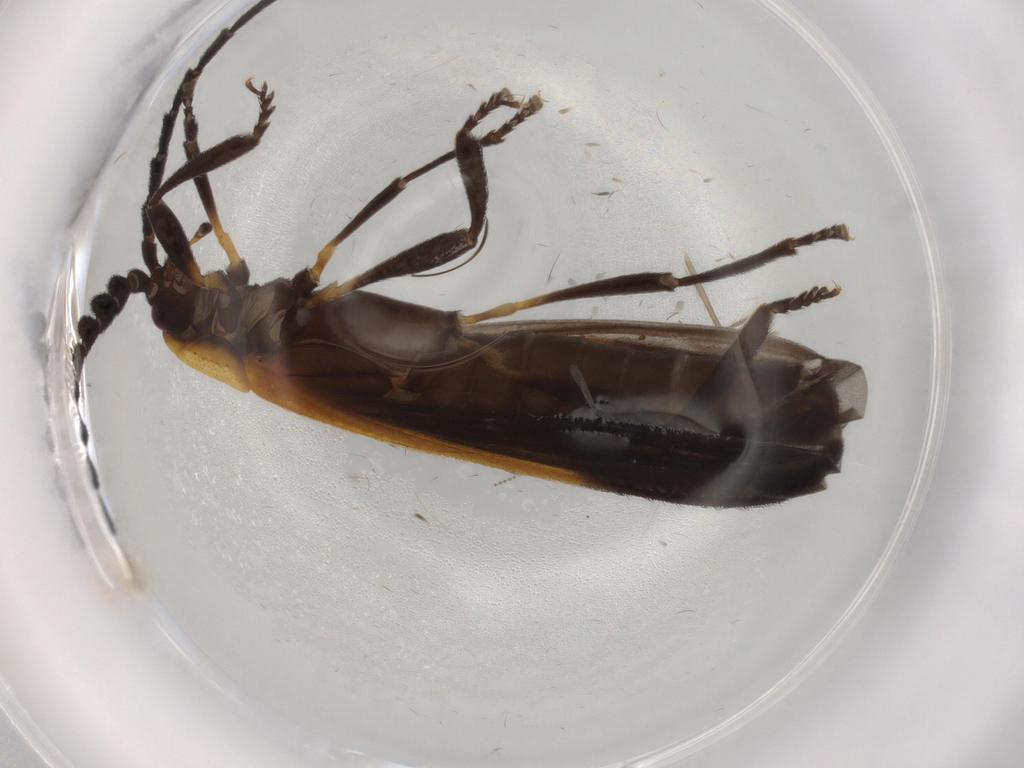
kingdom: Animalia
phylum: Arthropoda
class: Insecta
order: Coleoptera
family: Lycidae
